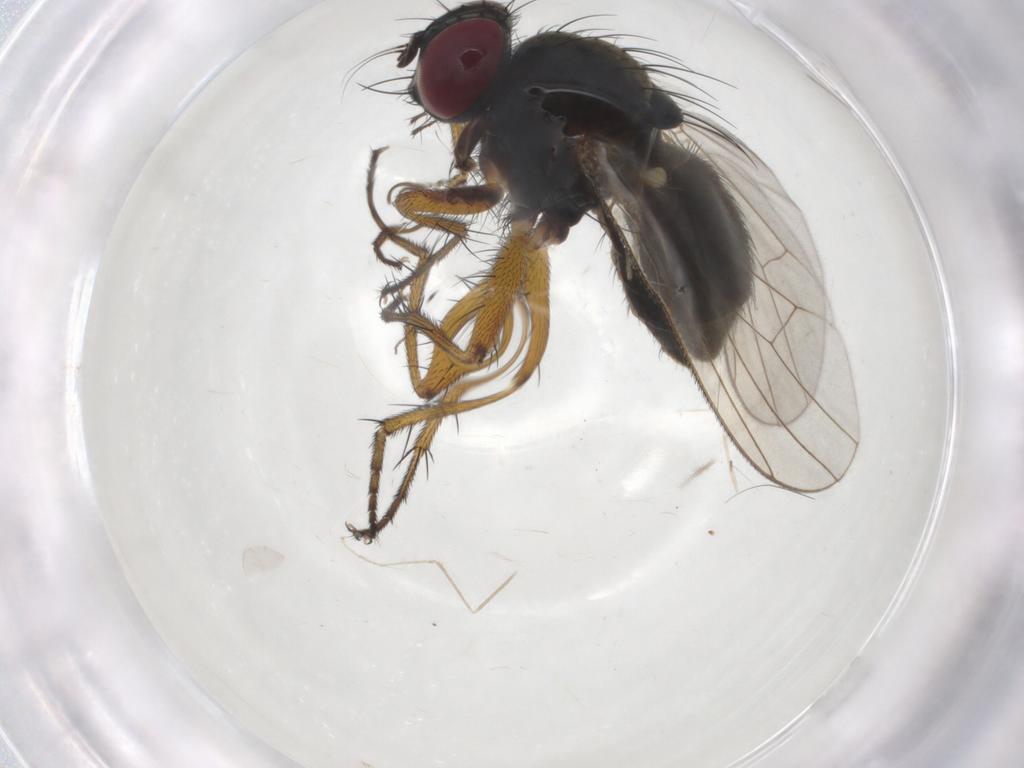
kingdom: Animalia
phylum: Arthropoda
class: Insecta
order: Diptera
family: Muscidae
